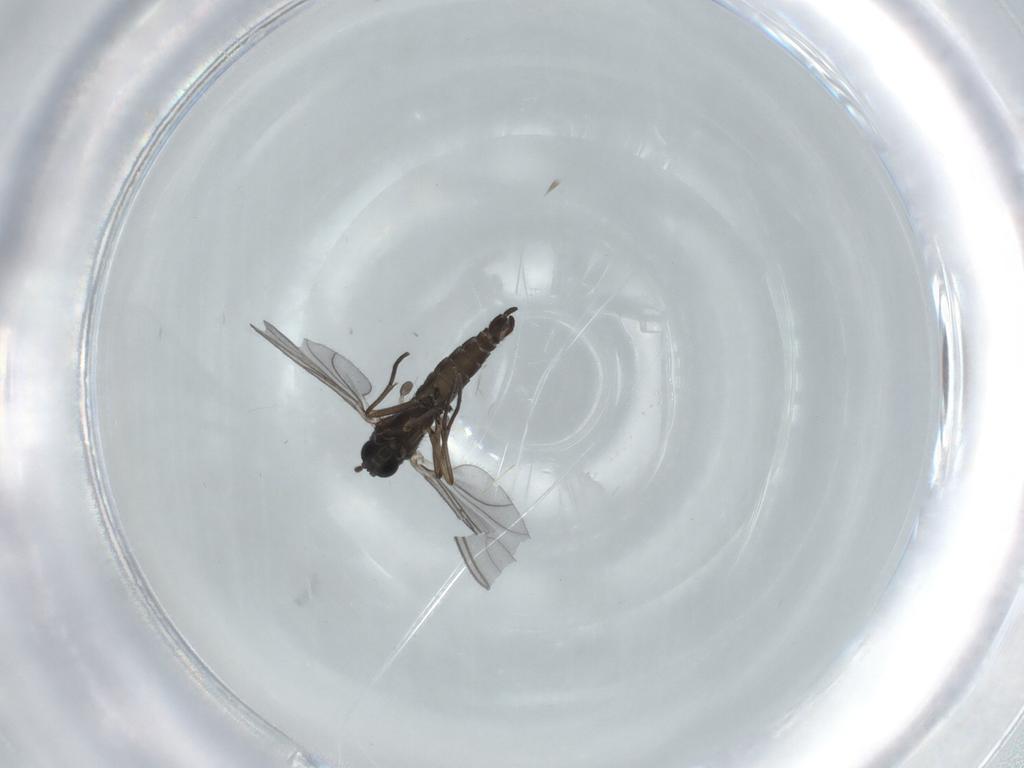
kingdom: Animalia
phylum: Arthropoda
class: Insecta
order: Diptera
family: Sciaridae
